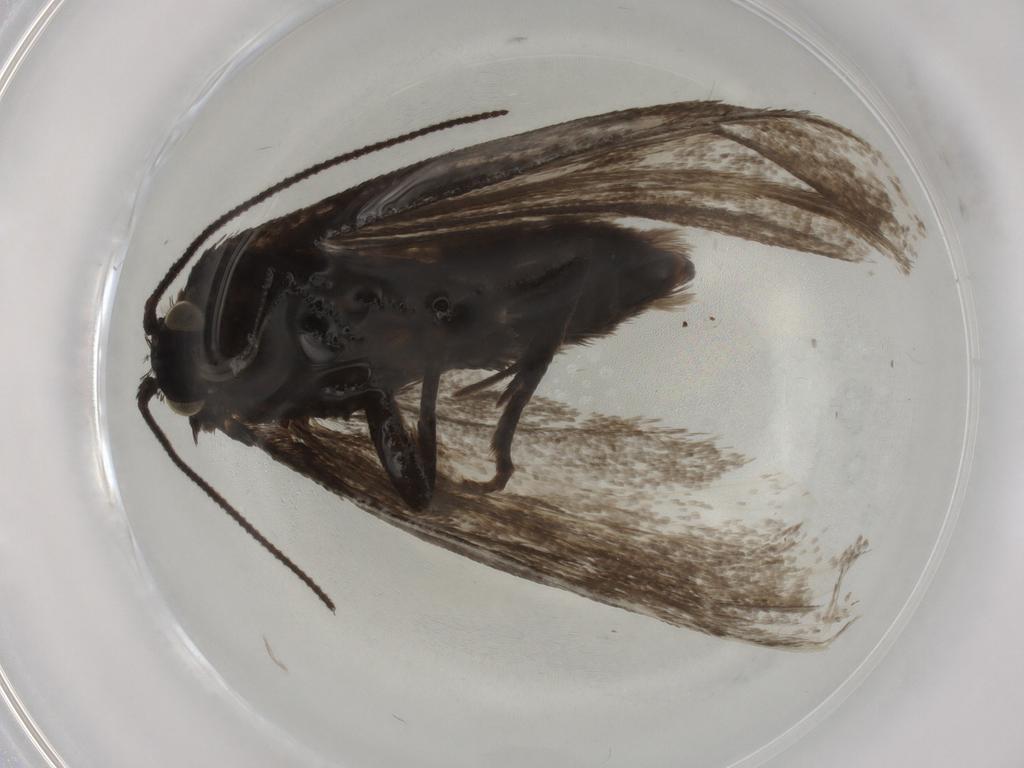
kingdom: Animalia
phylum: Arthropoda
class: Insecta
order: Lepidoptera
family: Tortricidae
